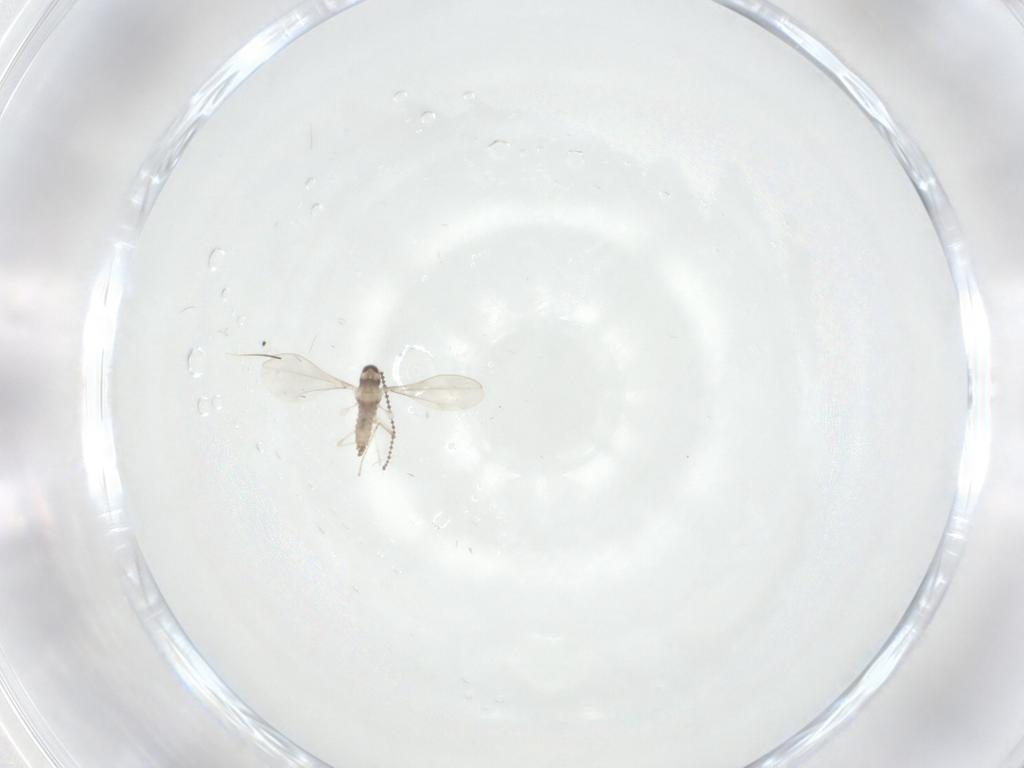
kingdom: Animalia
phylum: Arthropoda
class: Insecta
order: Diptera
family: Cecidomyiidae
